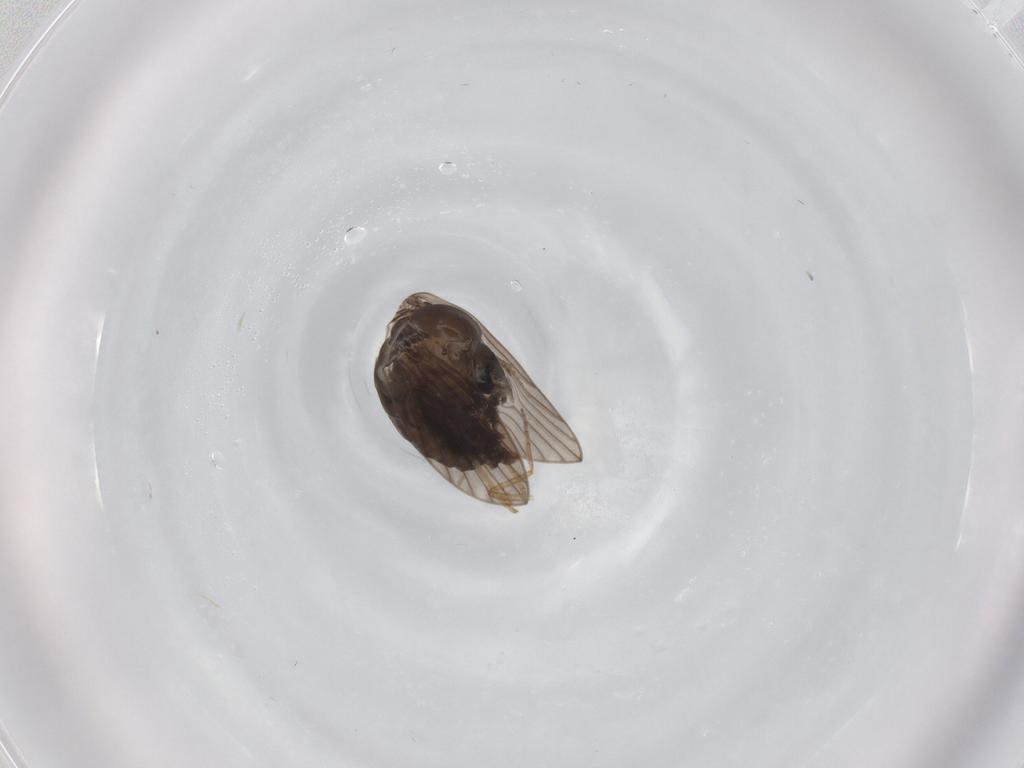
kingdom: Animalia
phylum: Arthropoda
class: Insecta
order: Diptera
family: Ceratopogonidae
